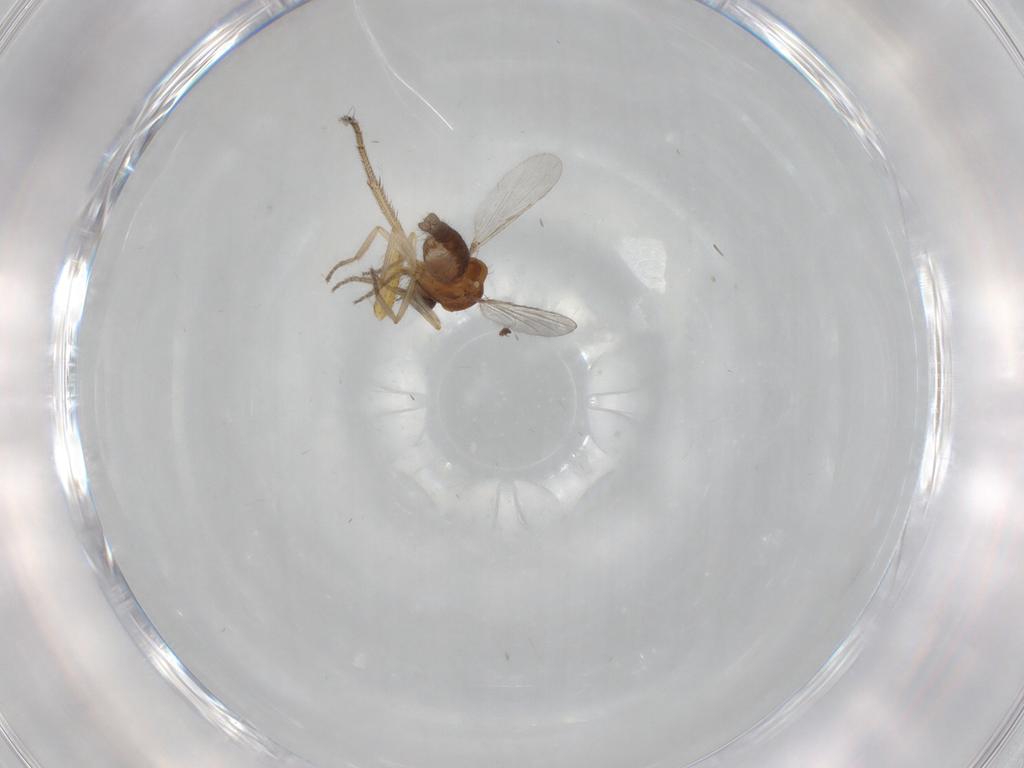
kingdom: Animalia
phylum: Arthropoda
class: Insecta
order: Diptera
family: Ceratopogonidae
